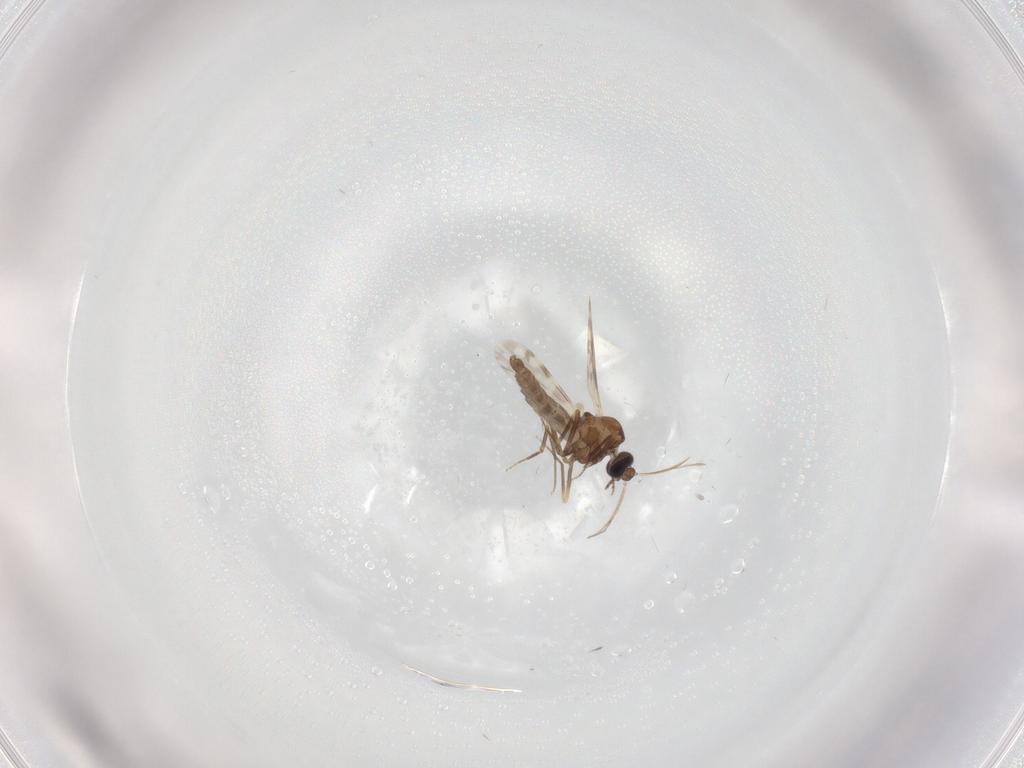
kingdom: Animalia
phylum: Arthropoda
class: Insecta
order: Diptera
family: Ceratopogonidae
